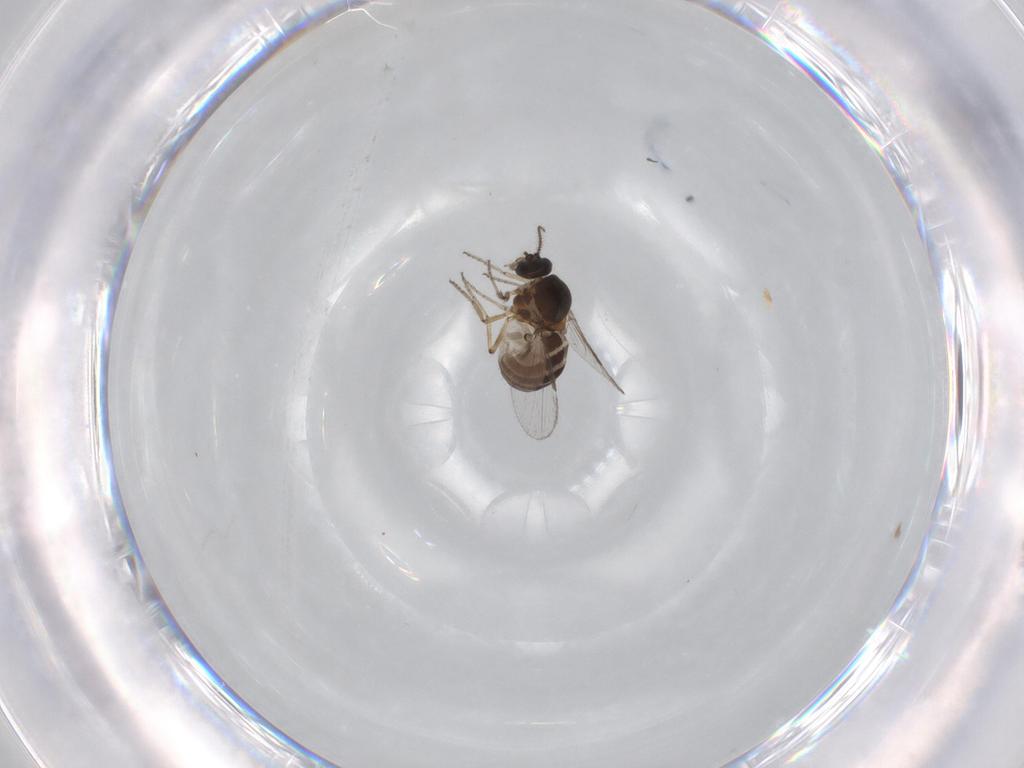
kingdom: Animalia
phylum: Arthropoda
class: Insecta
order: Diptera
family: Ceratopogonidae
